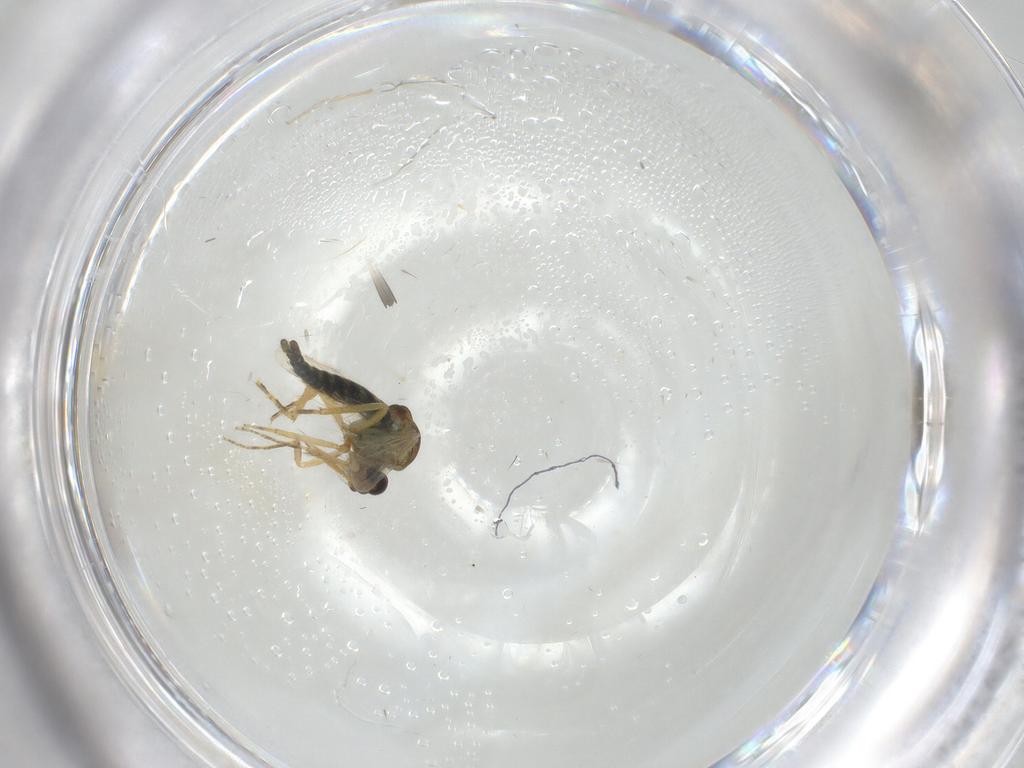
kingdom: Animalia
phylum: Arthropoda
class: Insecta
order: Diptera
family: Ceratopogonidae
